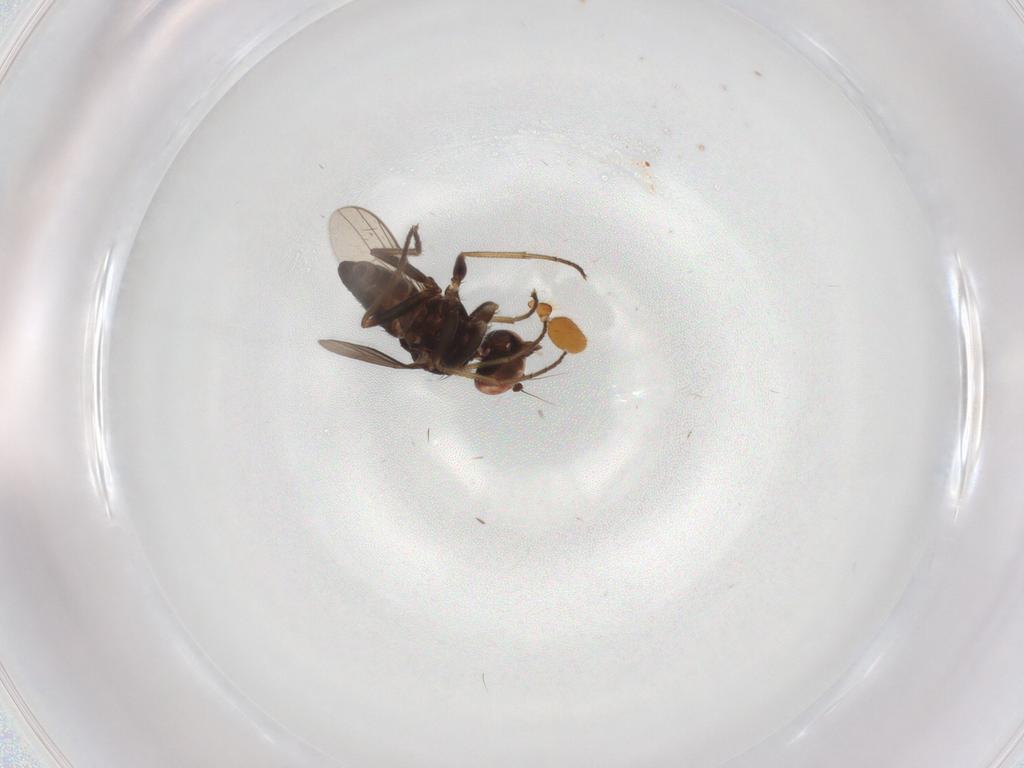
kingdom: Animalia
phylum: Arthropoda
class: Insecta
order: Diptera
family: Dolichopodidae
